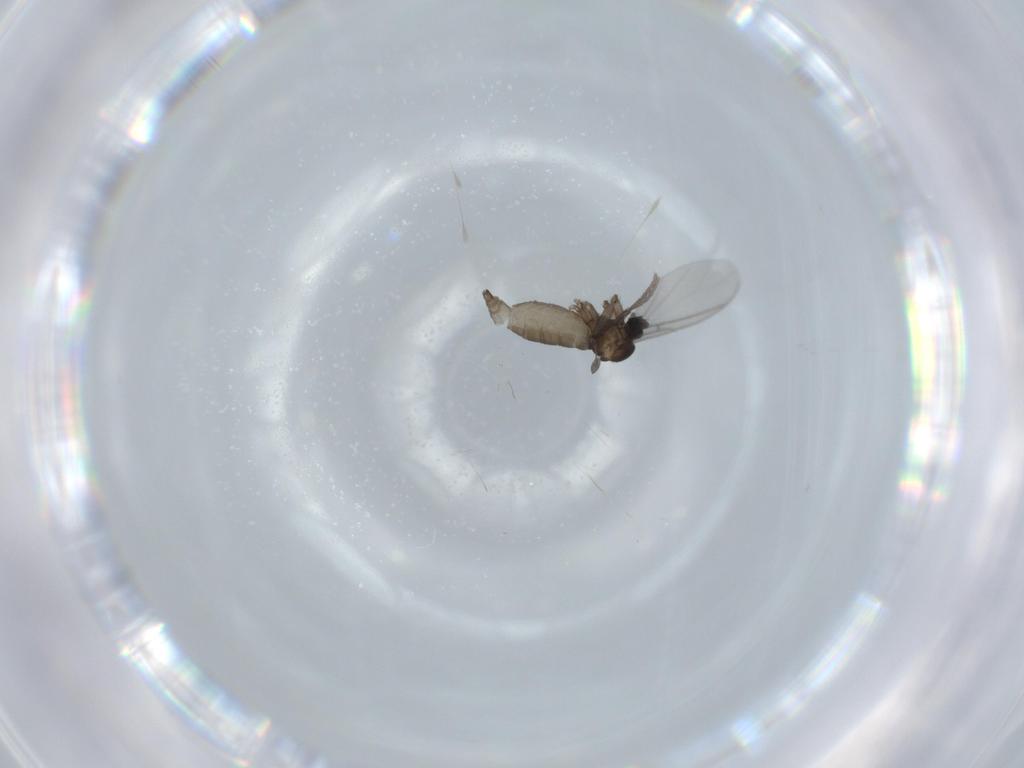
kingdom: Animalia
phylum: Arthropoda
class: Insecta
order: Diptera
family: Sciaridae
